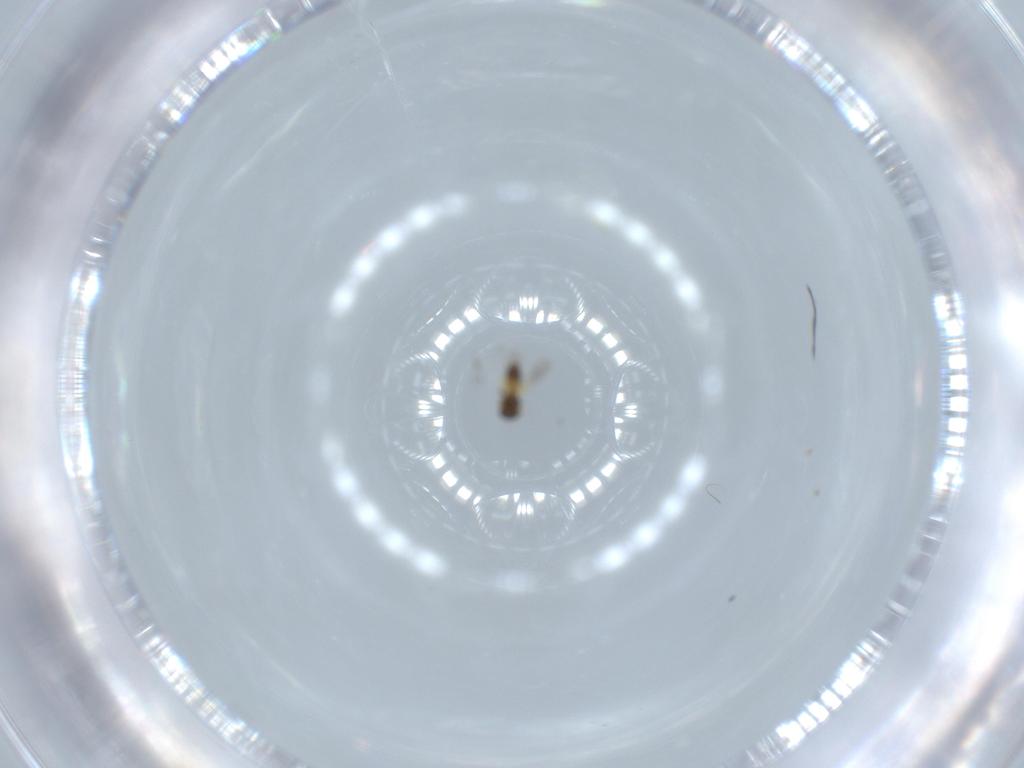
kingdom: Animalia
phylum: Arthropoda
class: Insecta
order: Hymenoptera
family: Platygastridae
